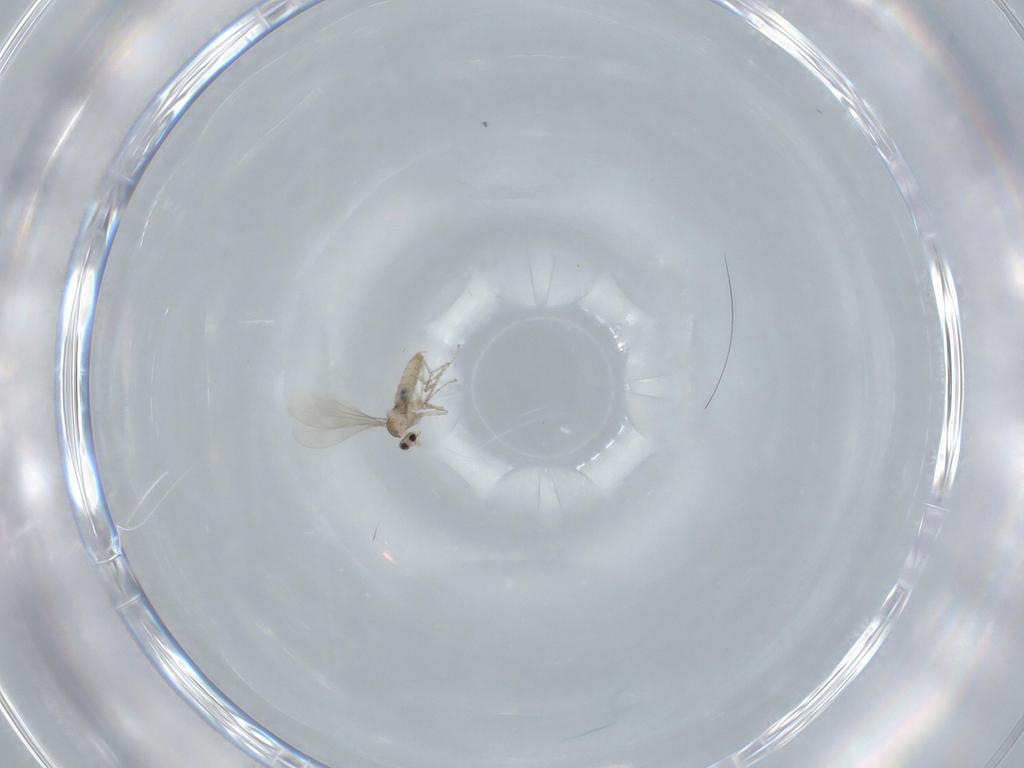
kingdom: Animalia
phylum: Arthropoda
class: Insecta
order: Diptera
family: Cecidomyiidae
